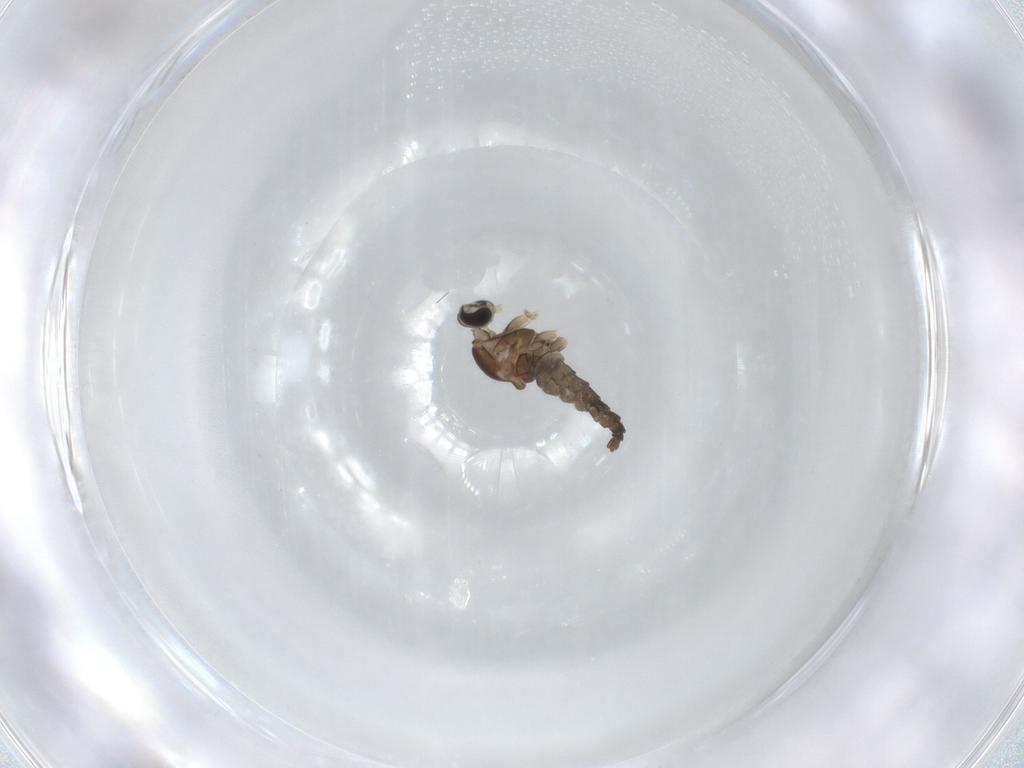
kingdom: Animalia
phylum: Arthropoda
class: Insecta
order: Diptera
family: Cecidomyiidae
